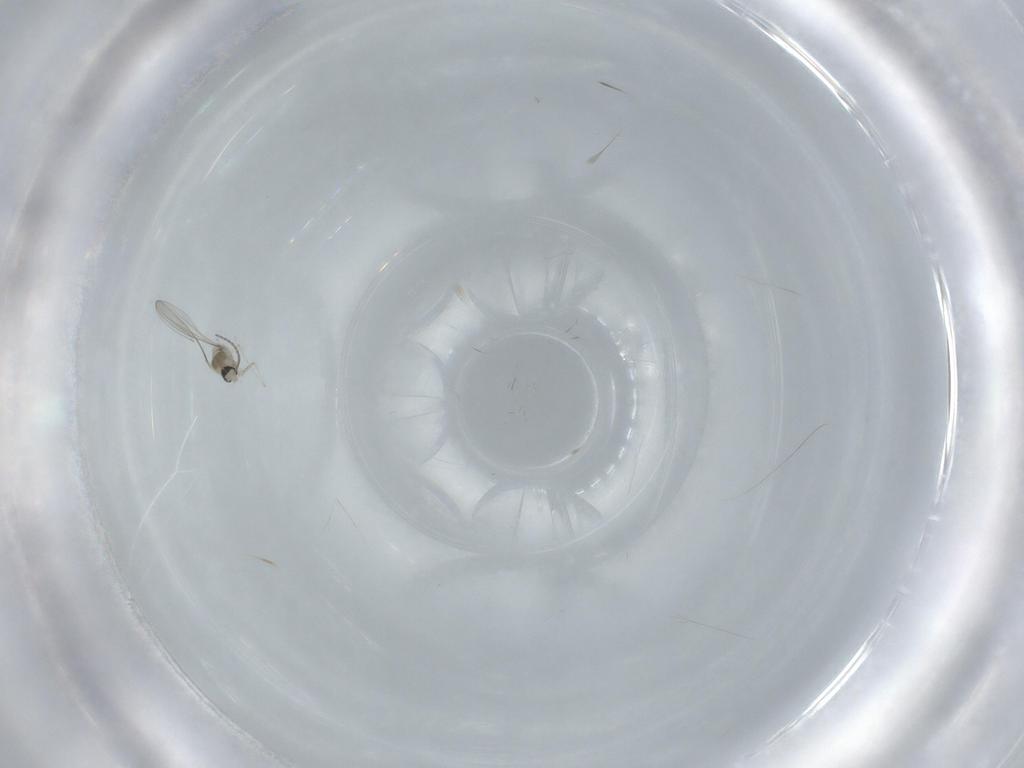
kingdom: Animalia
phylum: Arthropoda
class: Insecta
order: Diptera
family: Ceratopogonidae
